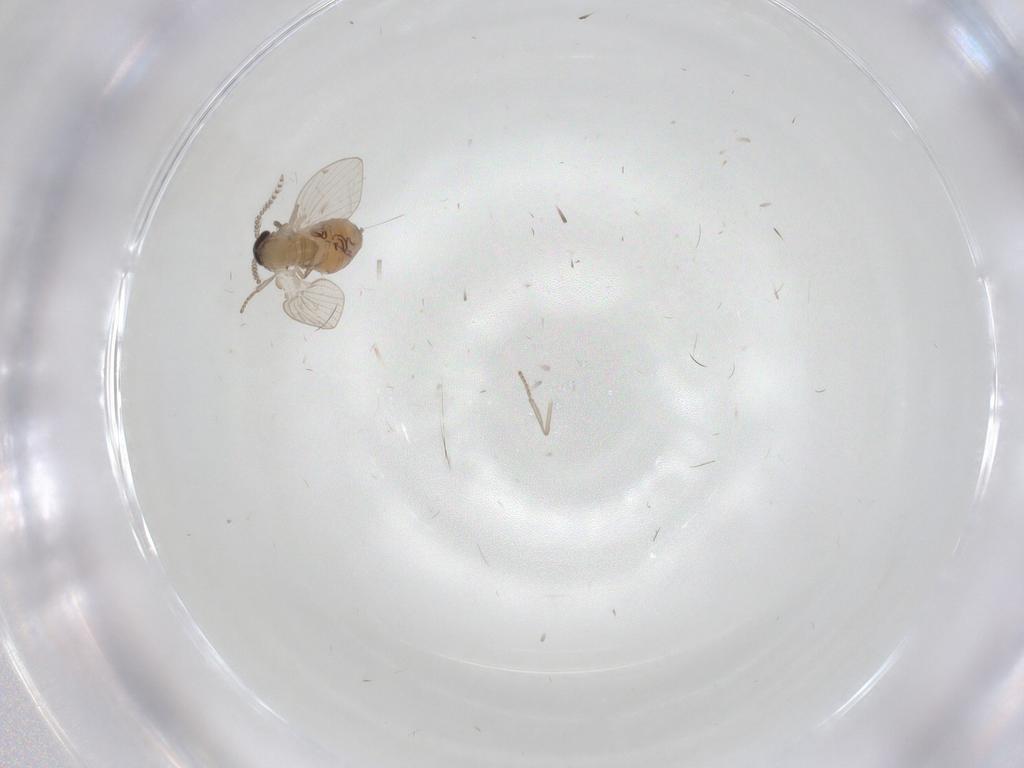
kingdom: Animalia
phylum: Arthropoda
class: Insecta
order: Diptera
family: Psychodidae
